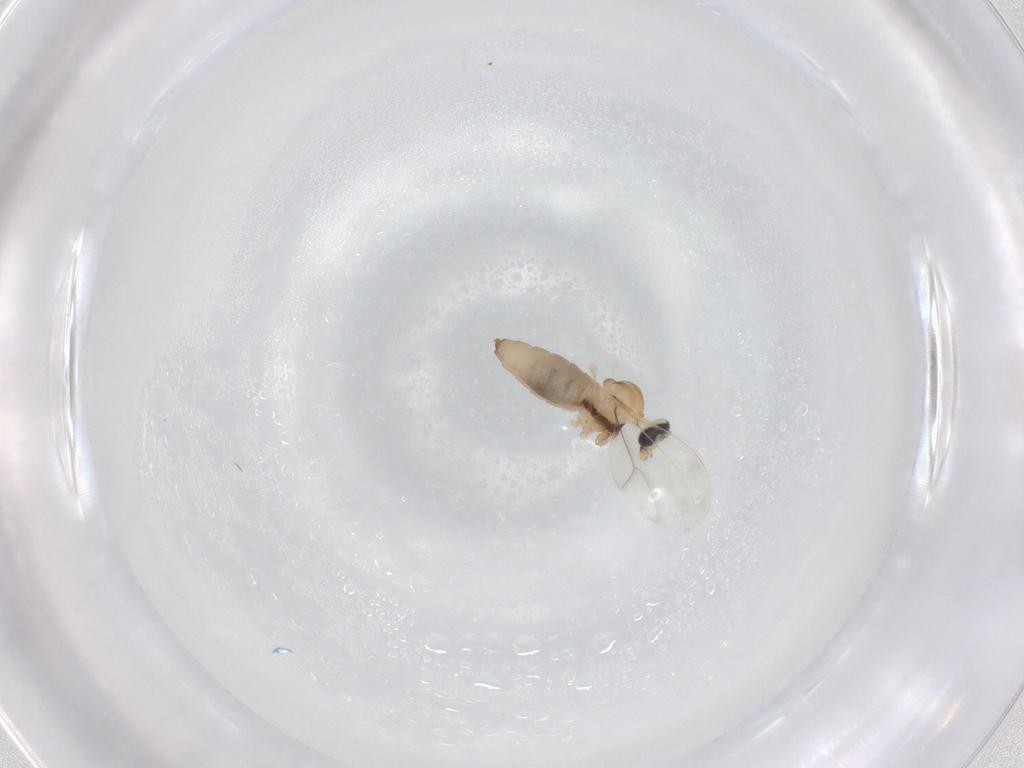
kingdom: Animalia
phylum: Arthropoda
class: Insecta
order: Diptera
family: Cecidomyiidae
